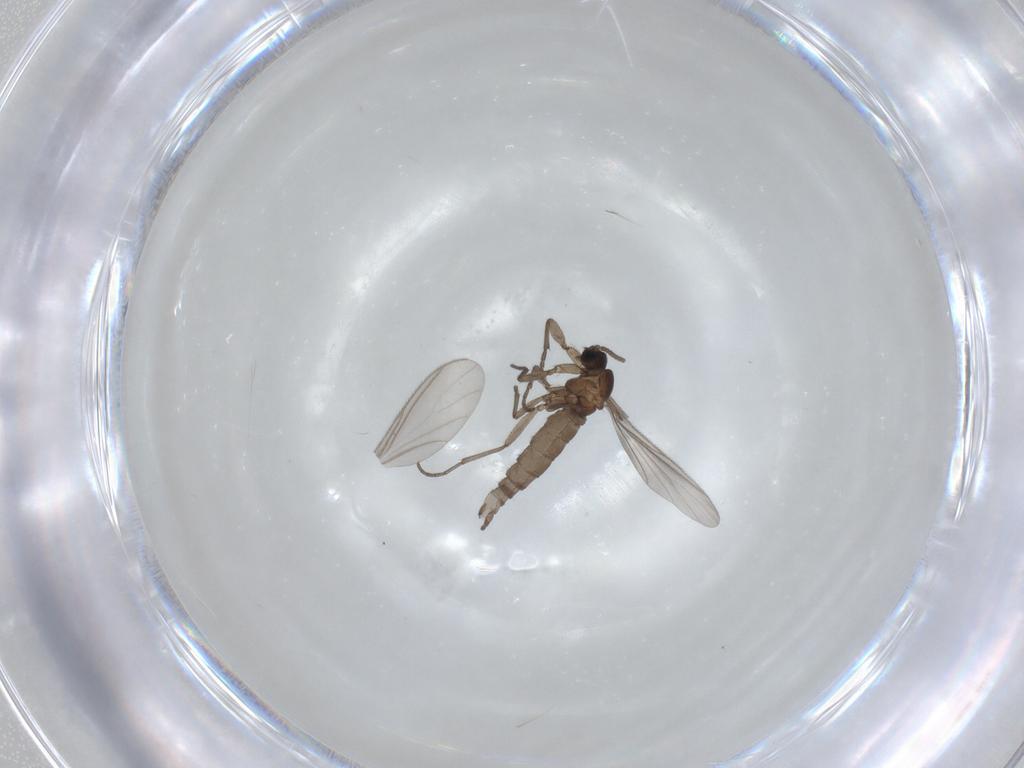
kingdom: Animalia
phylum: Arthropoda
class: Insecta
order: Diptera
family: Sciaridae
